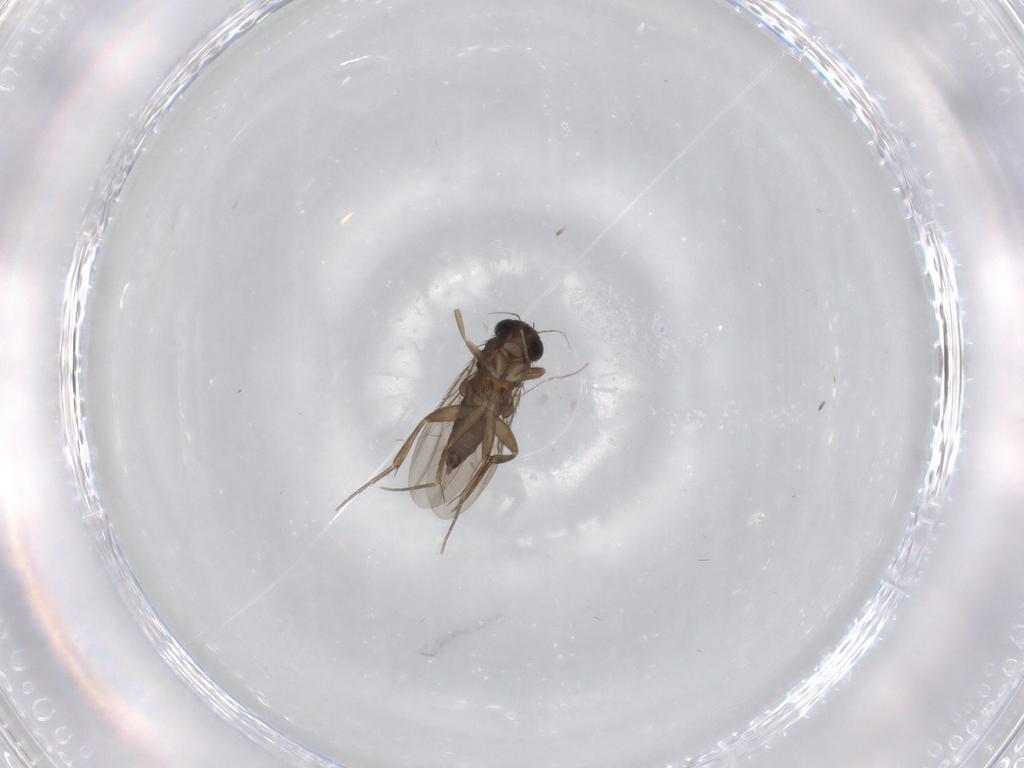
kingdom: Animalia
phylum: Arthropoda
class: Insecta
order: Diptera
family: Phoridae
